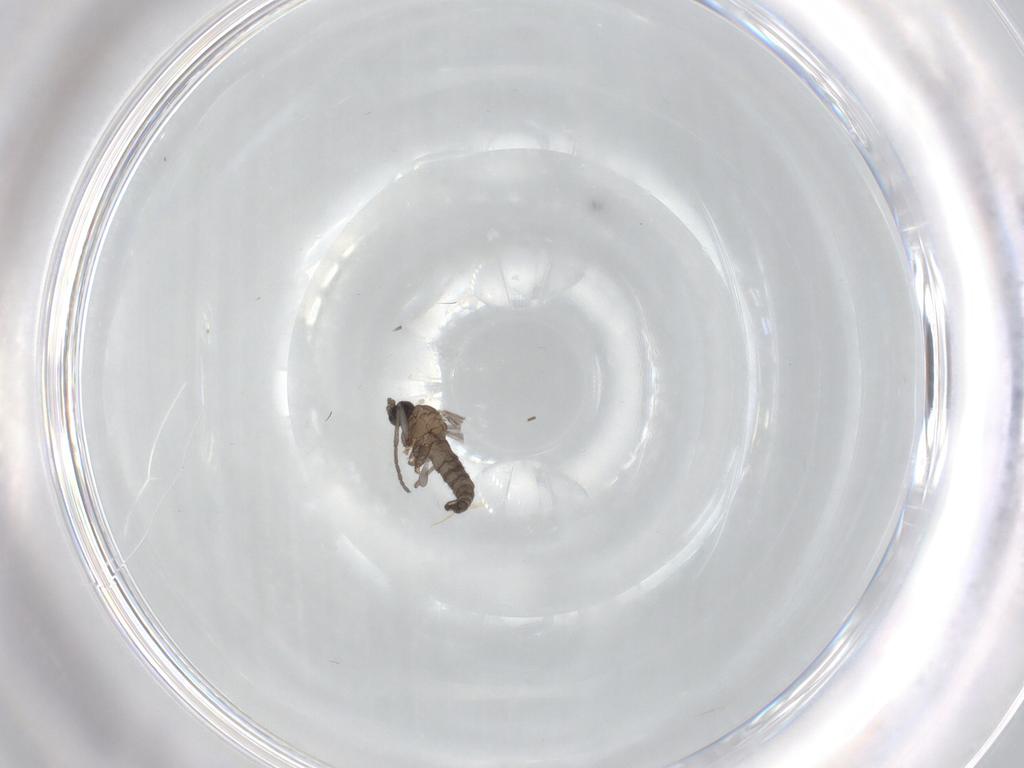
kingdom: Animalia
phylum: Arthropoda
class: Insecta
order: Diptera
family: Sciaridae
